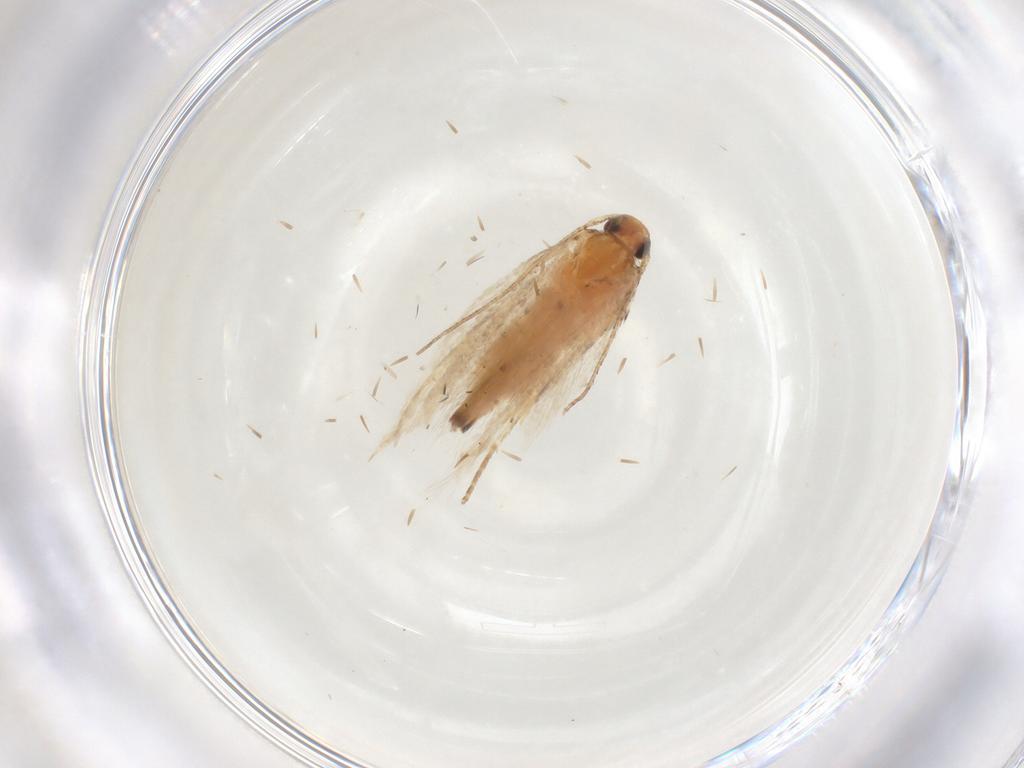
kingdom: Animalia
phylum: Arthropoda
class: Insecta
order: Lepidoptera
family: Gelechiidae
